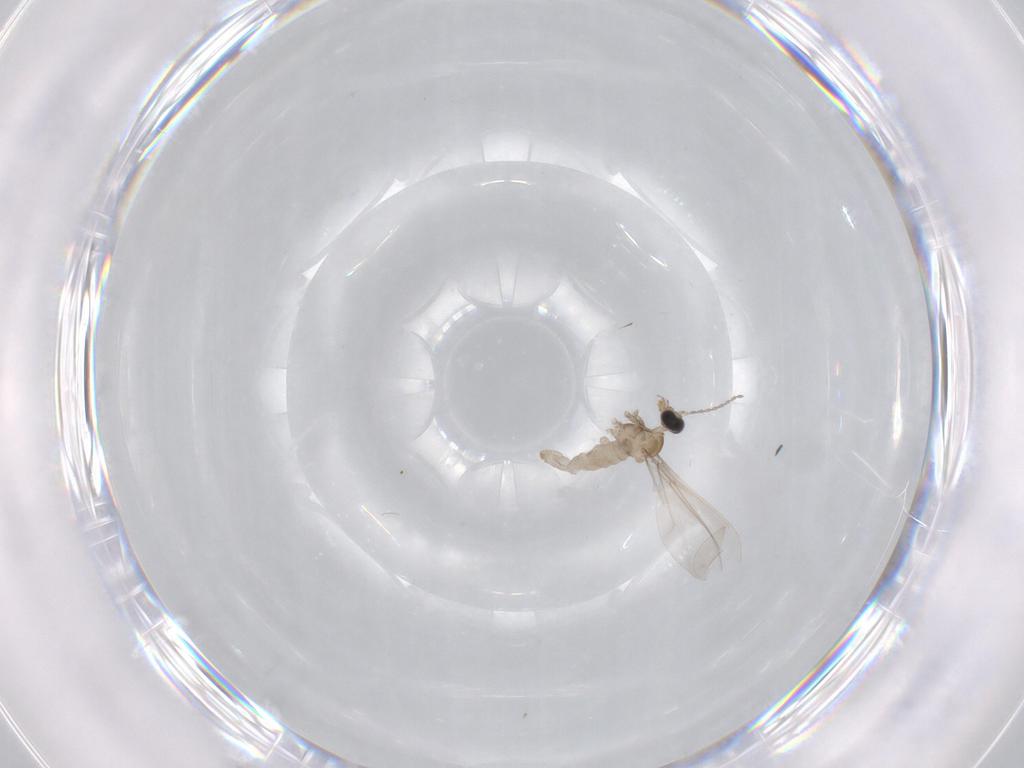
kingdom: Animalia
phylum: Arthropoda
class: Insecta
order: Diptera
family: Cecidomyiidae
